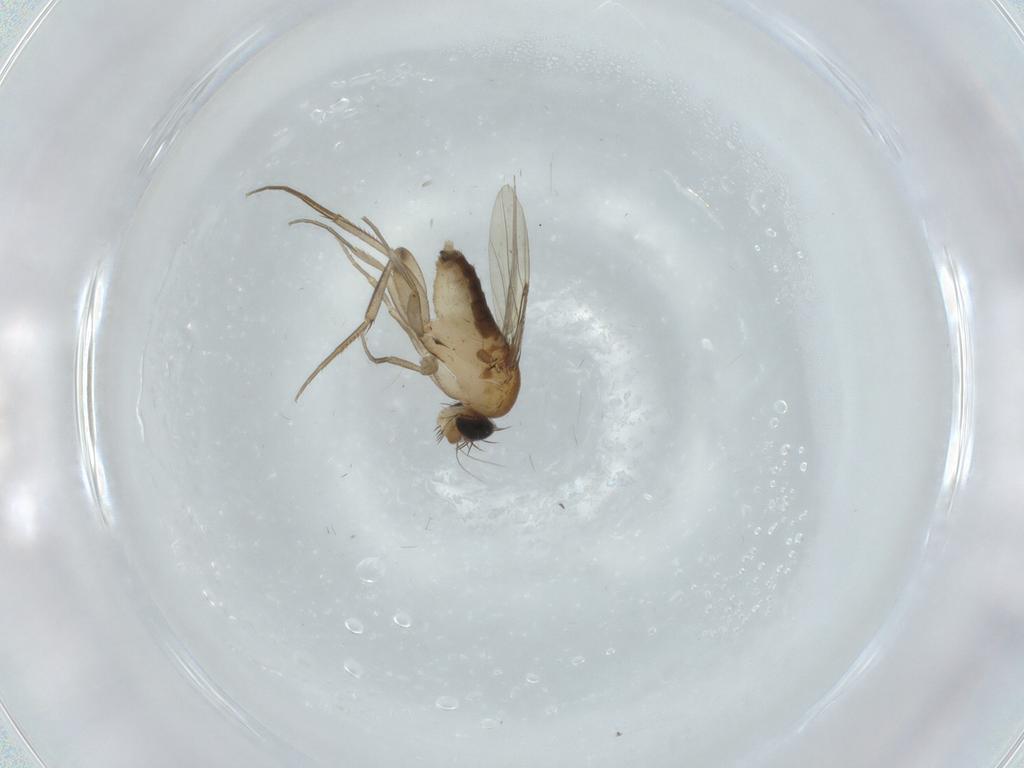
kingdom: Animalia
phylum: Arthropoda
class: Insecta
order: Diptera
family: Phoridae
